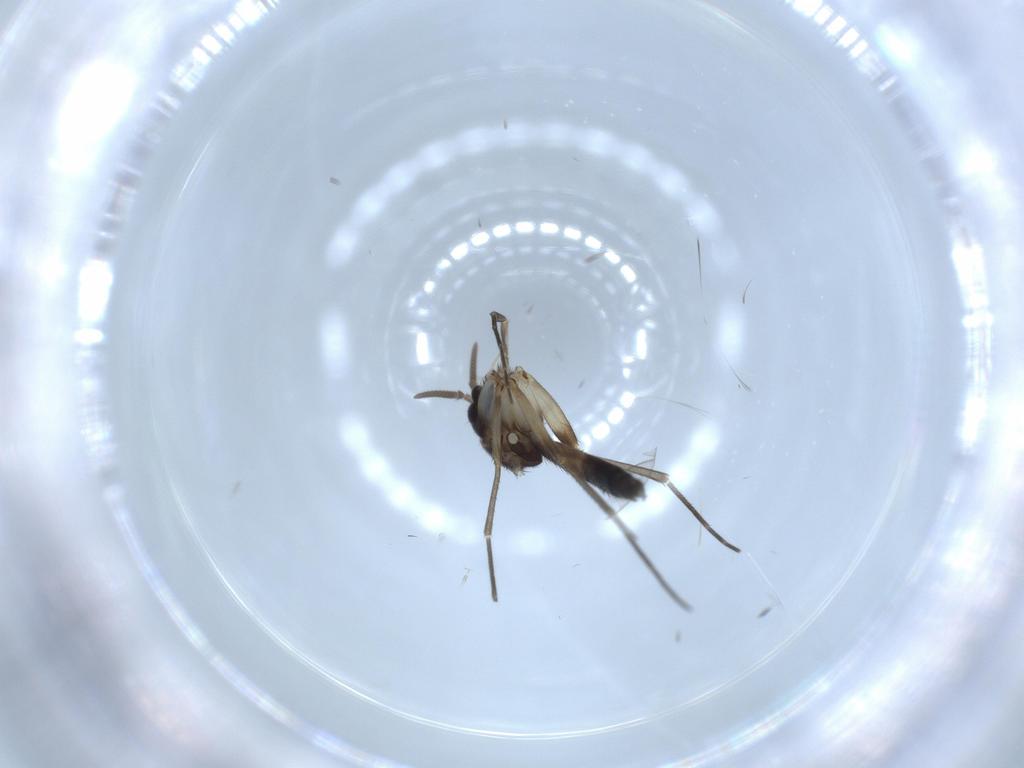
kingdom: Animalia
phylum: Arthropoda
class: Insecta
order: Diptera
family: Mycetophilidae
